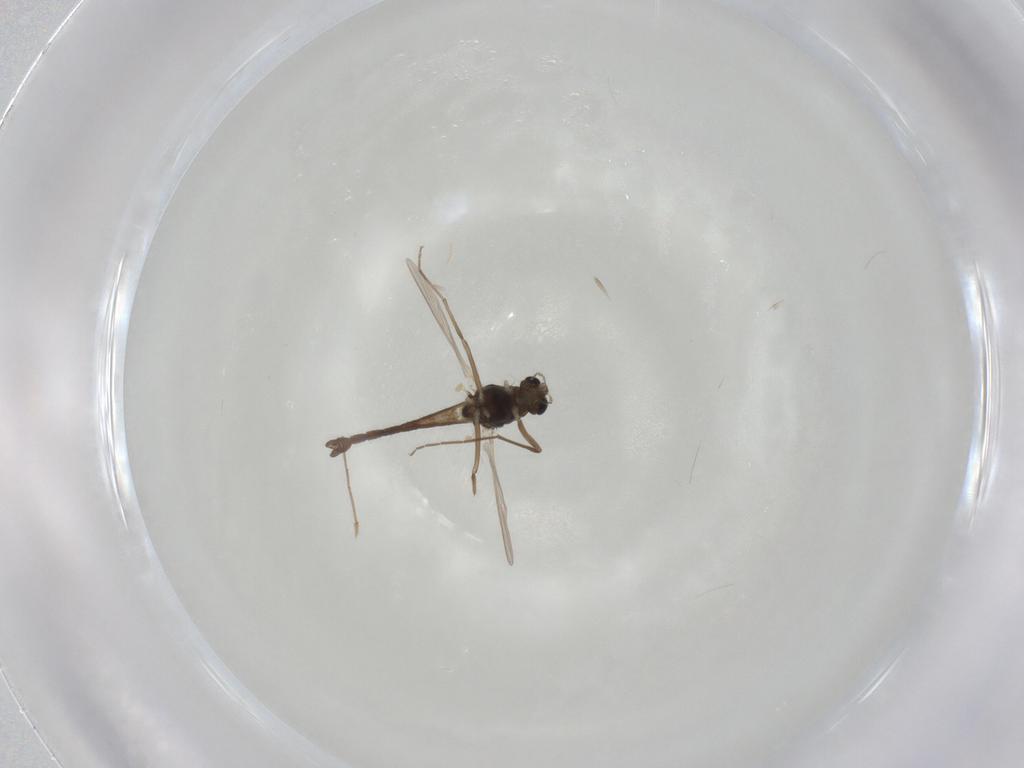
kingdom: Animalia
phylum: Arthropoda
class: Insecta
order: Diptera
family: Chironomidae
